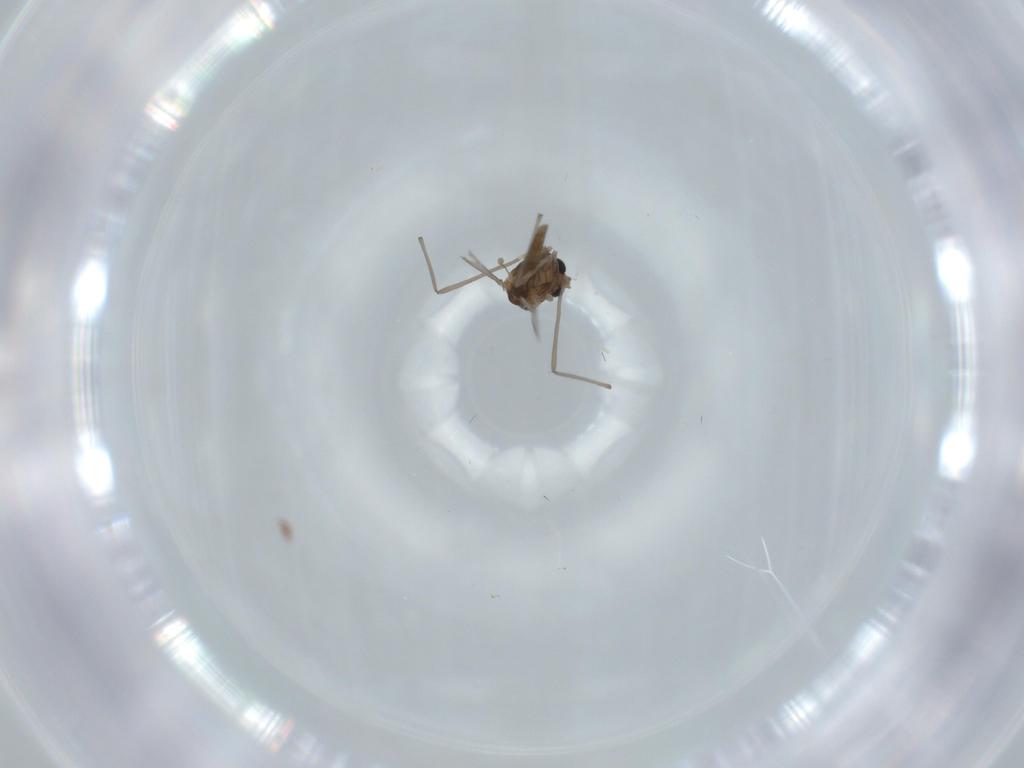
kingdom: Animalia
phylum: Arthropoda
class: Insecta
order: Diptera
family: Chironomidae
